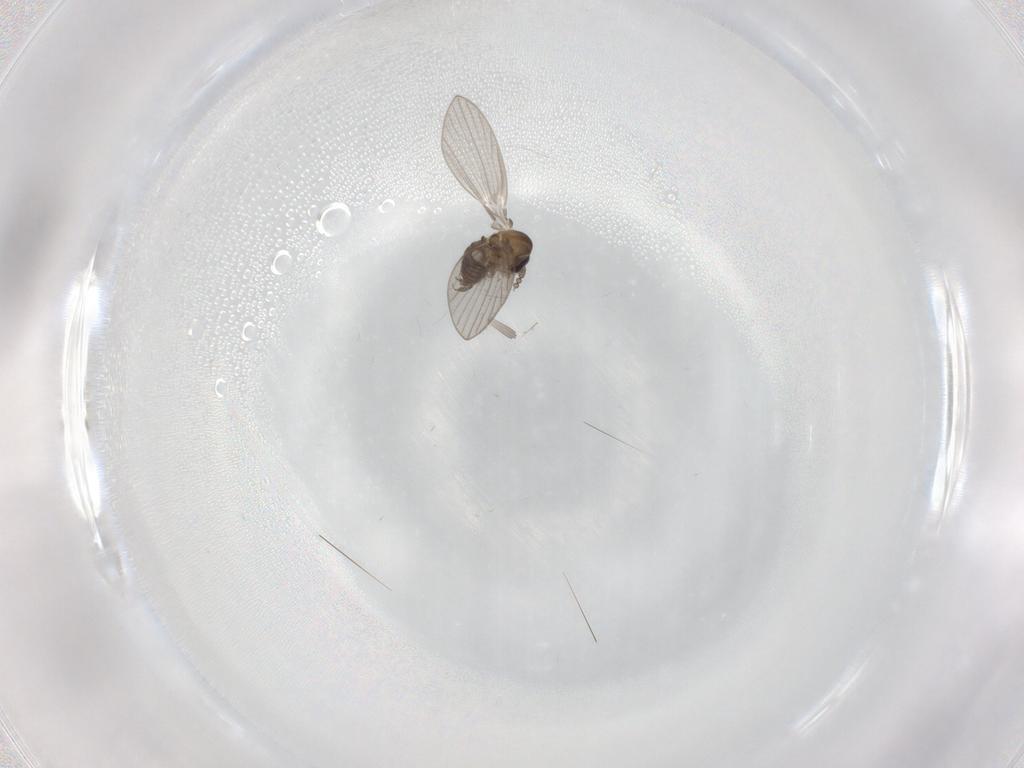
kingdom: Animalia
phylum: Arthropoda
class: Insecta
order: Diptera
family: Psychodidae
